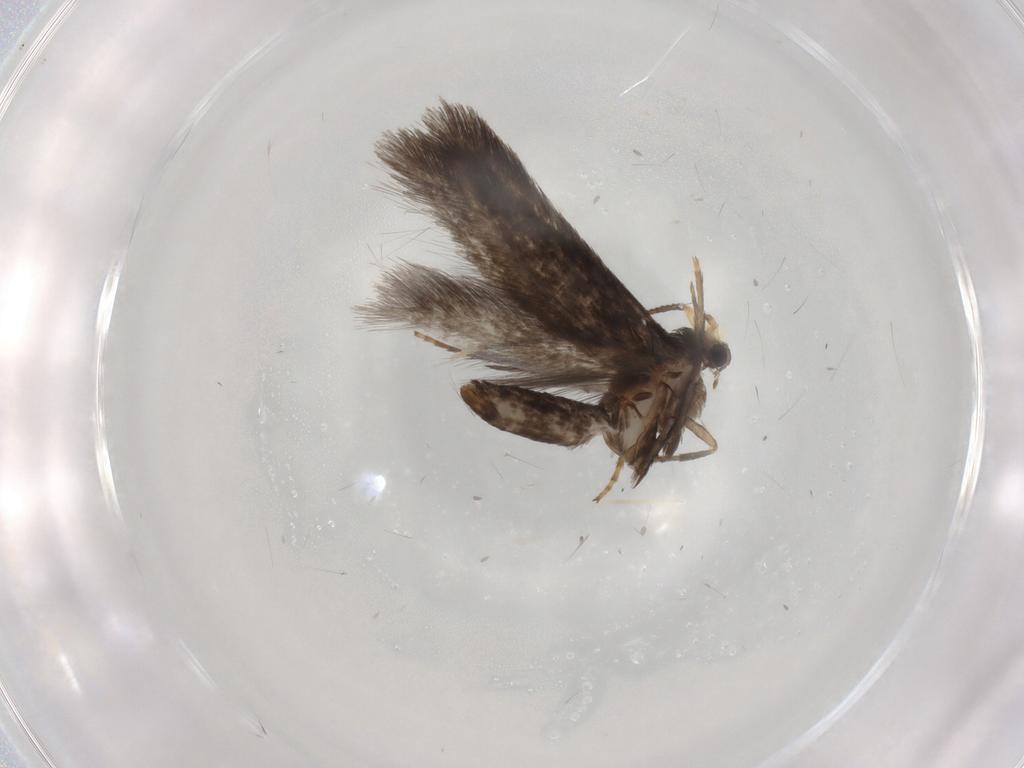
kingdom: Animalia
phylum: Arthropoda
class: Insecta
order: Lepidoptera
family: Nepticulidae
